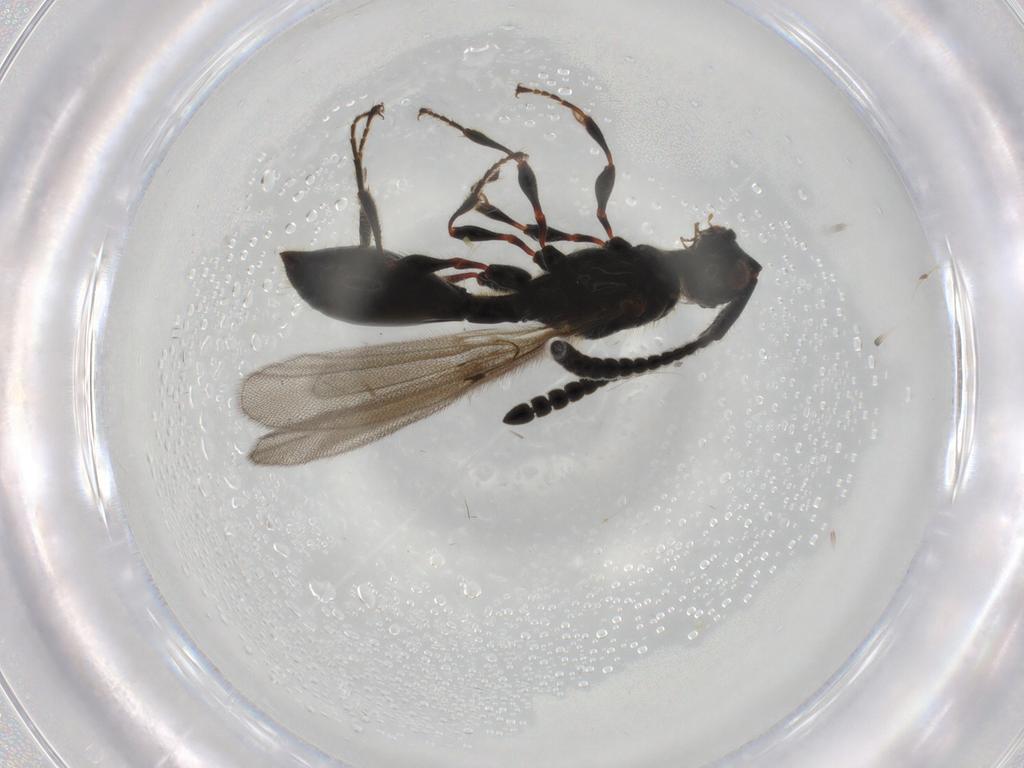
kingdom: Animalia
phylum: Arthropoda
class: Insecta
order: Hymenoptera
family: Diapriidae
